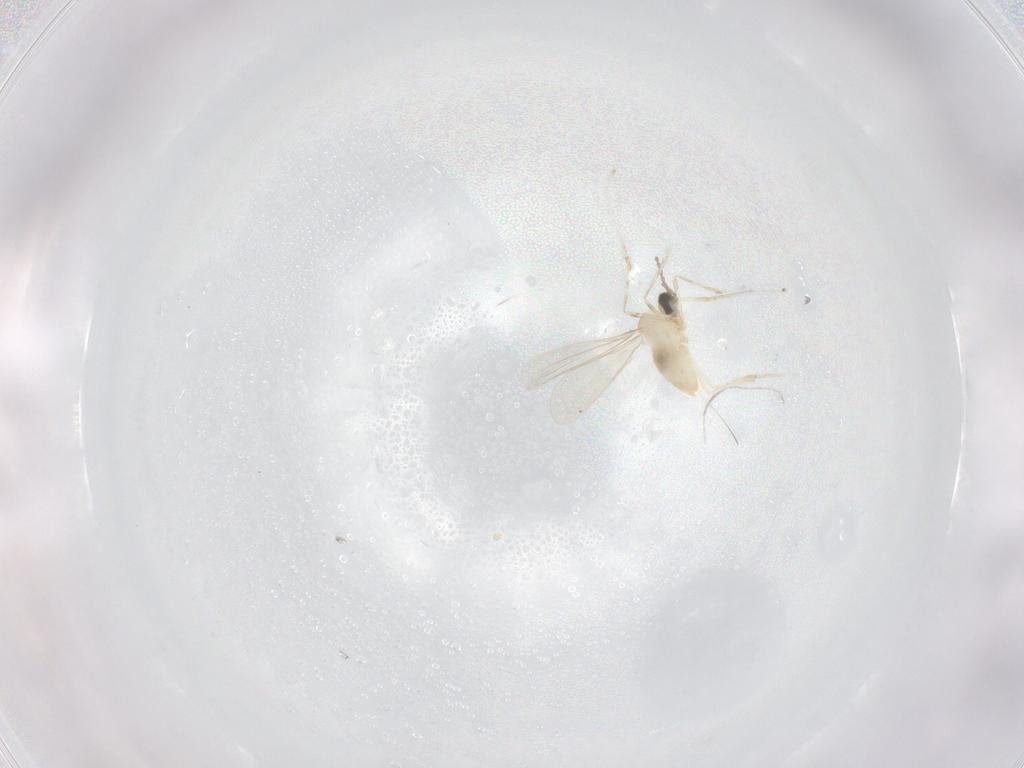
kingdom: Animalia
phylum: Arthropoda
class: Insecta
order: Diptera
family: Cecidomyiidae
